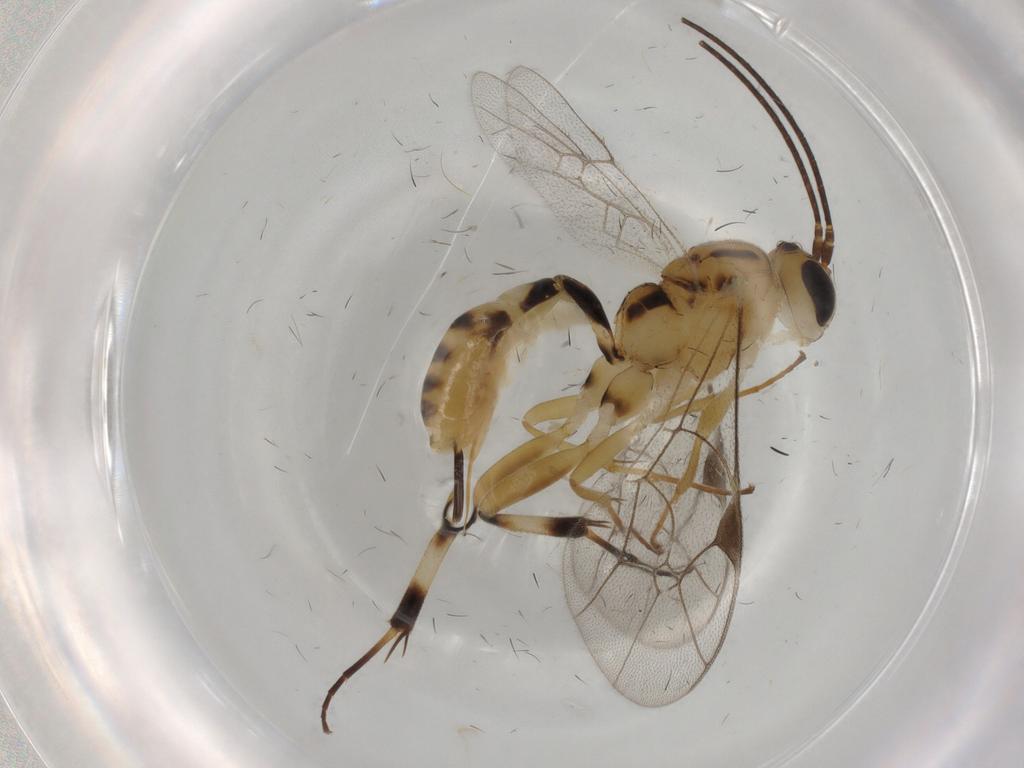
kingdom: Animalia
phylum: Arthropoda
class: Insecta
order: Hymenoptera
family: Ichneumonidae
